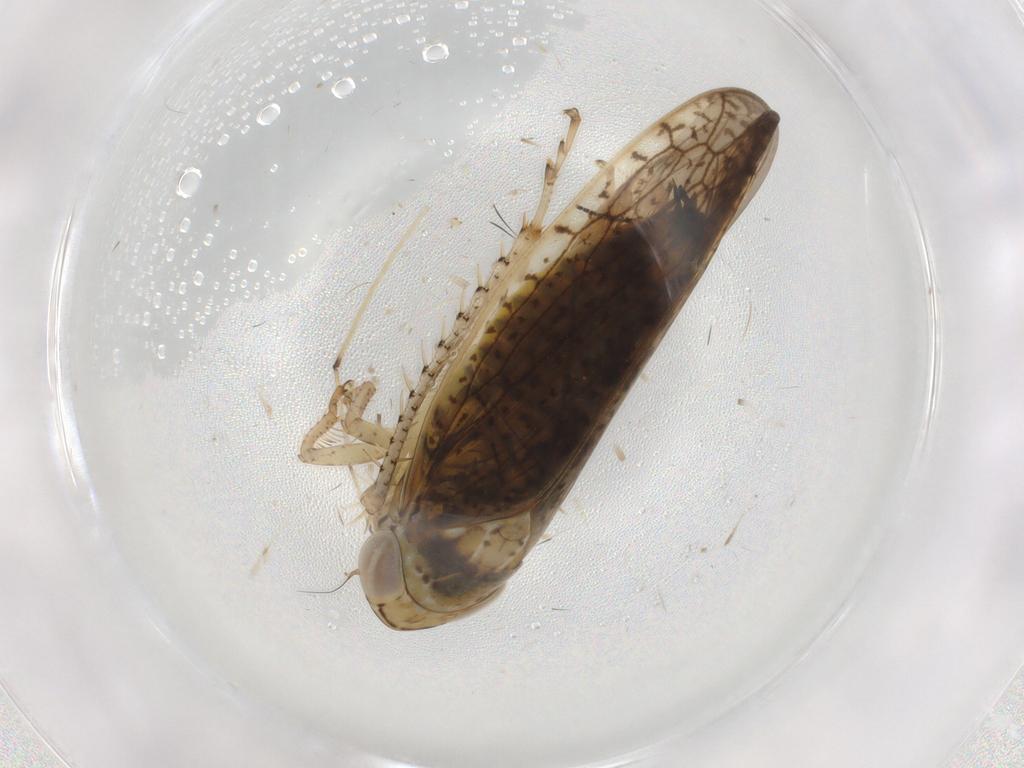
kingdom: Animalia
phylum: Arthropoda
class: Insecta
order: Hemiptera
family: Cicadellidae
